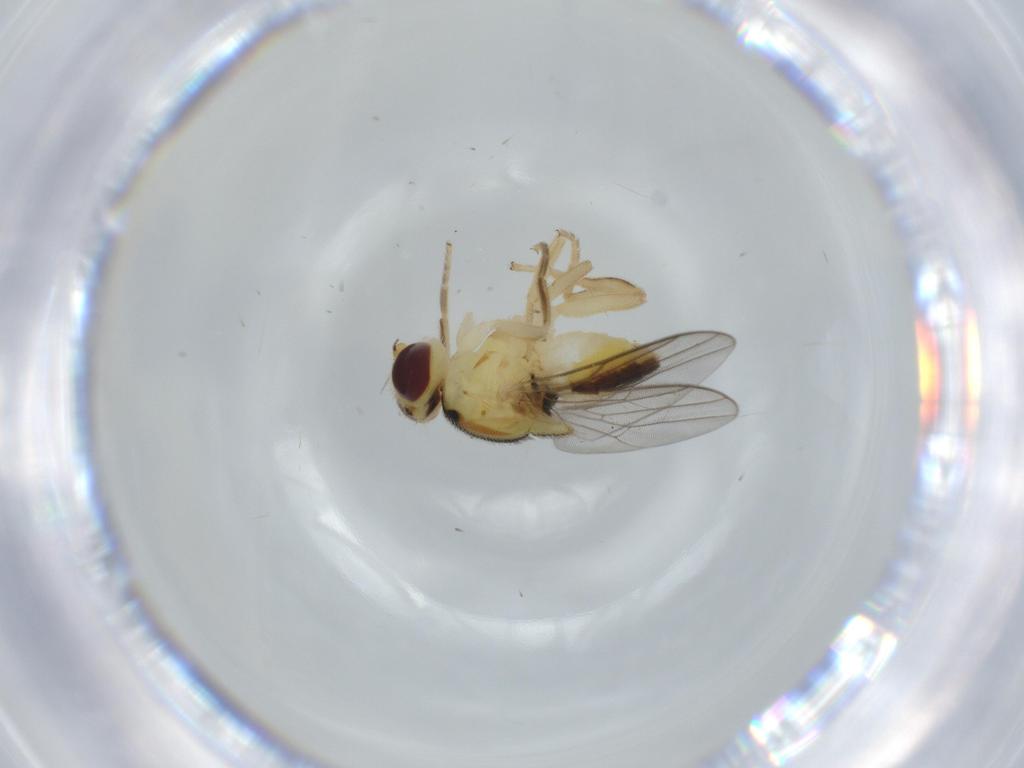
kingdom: Animalia
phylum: Arthropoda
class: Insecta
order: Diptera
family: Chloropidae
